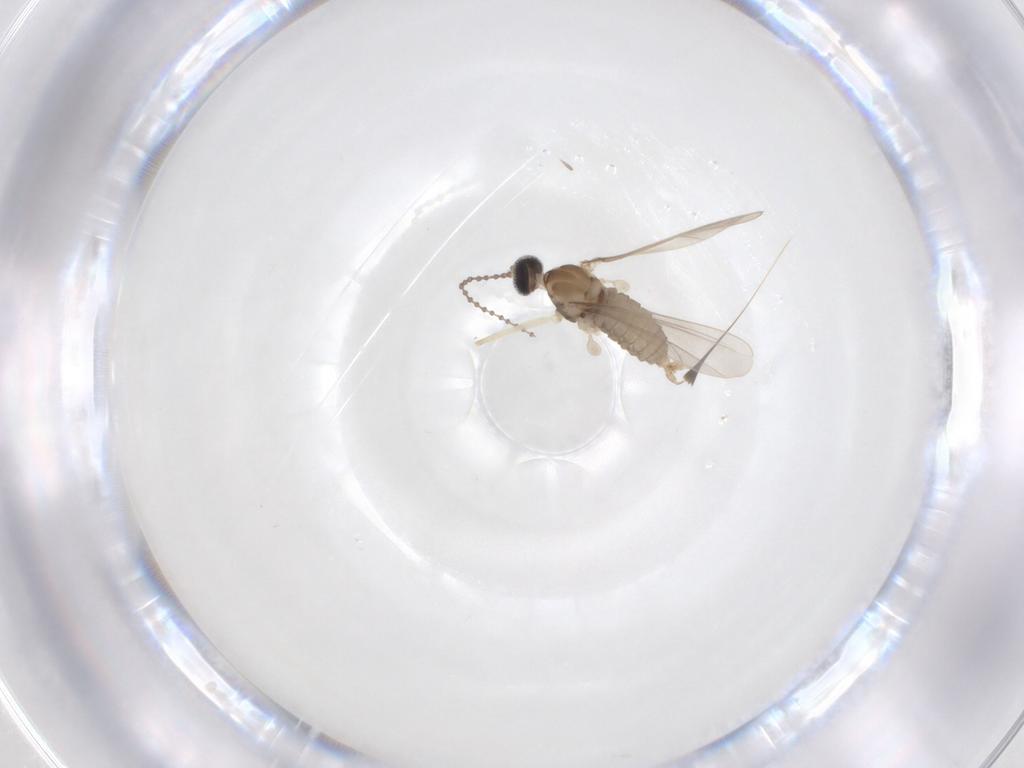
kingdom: Animalia
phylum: Arthropoda
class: Insecta
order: Diptera
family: Cecidomyiidae
